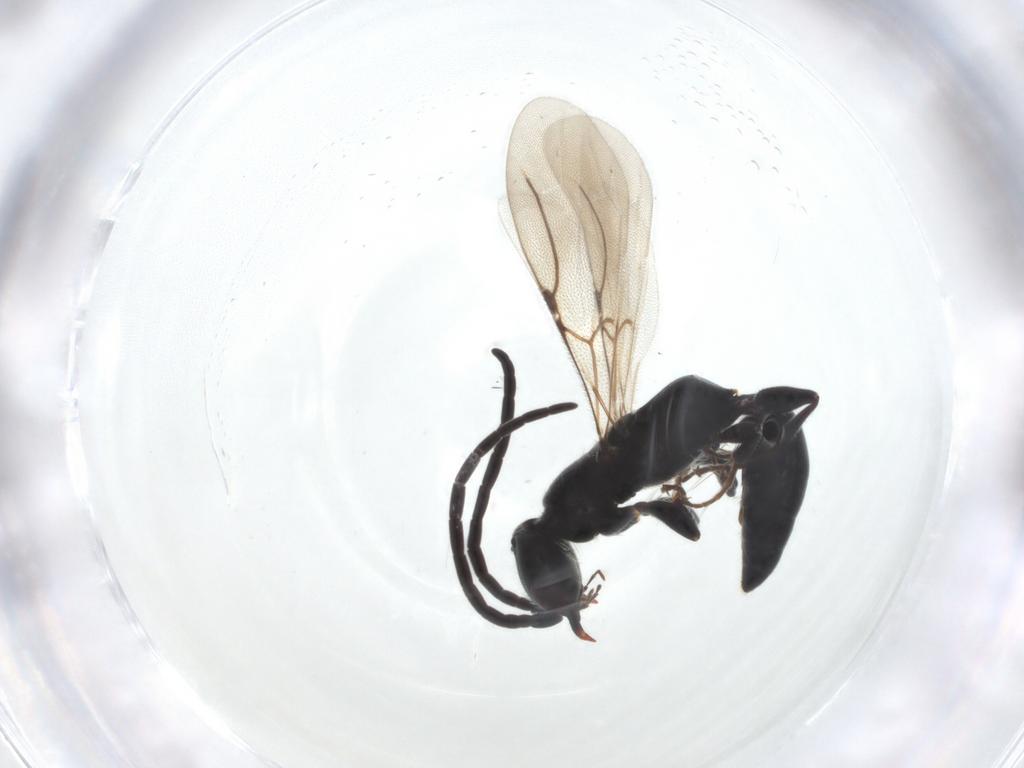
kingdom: Animalia
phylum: Arthropoda
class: Insecta
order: Hymenoptera
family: Bethylidae
